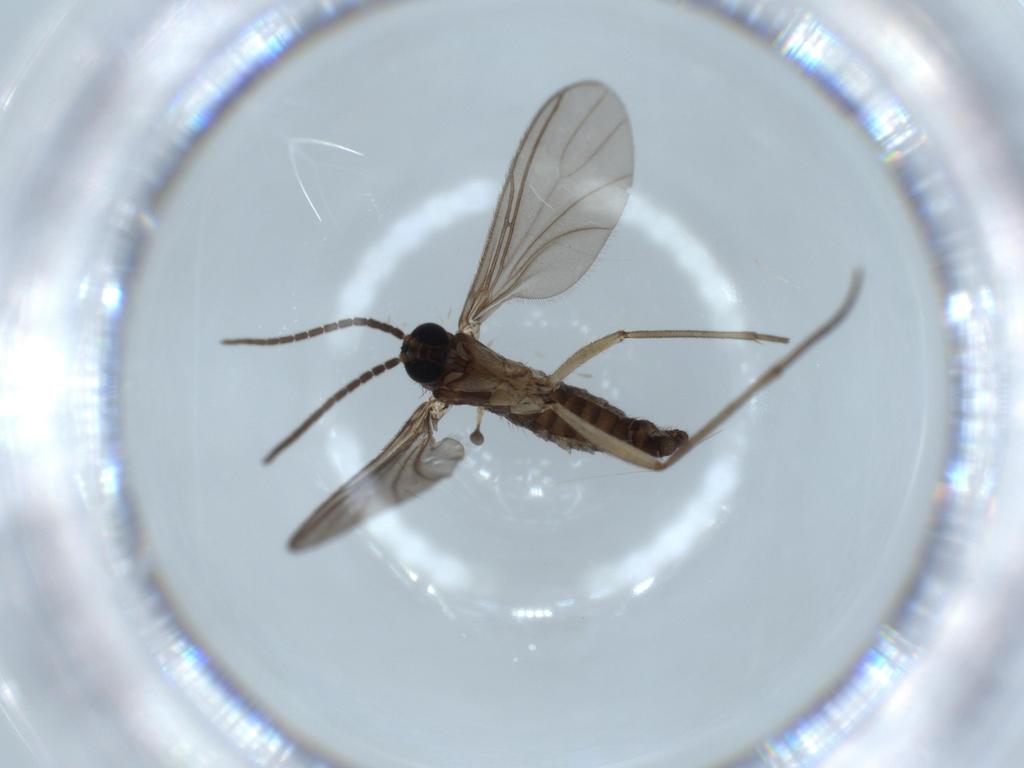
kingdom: Animalia
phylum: Arthropoda
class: Insecta
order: Diptera
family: Sciaridae
